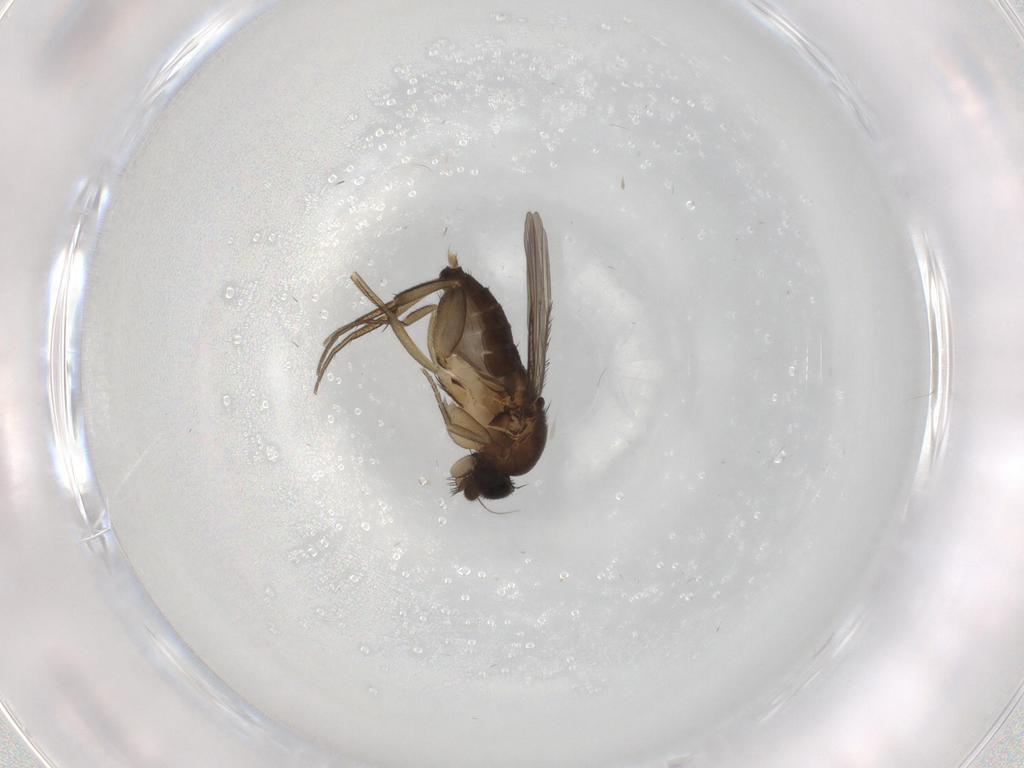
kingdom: Animalia
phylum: Arthropoda
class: Insecta
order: Diptera
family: Phoridae
